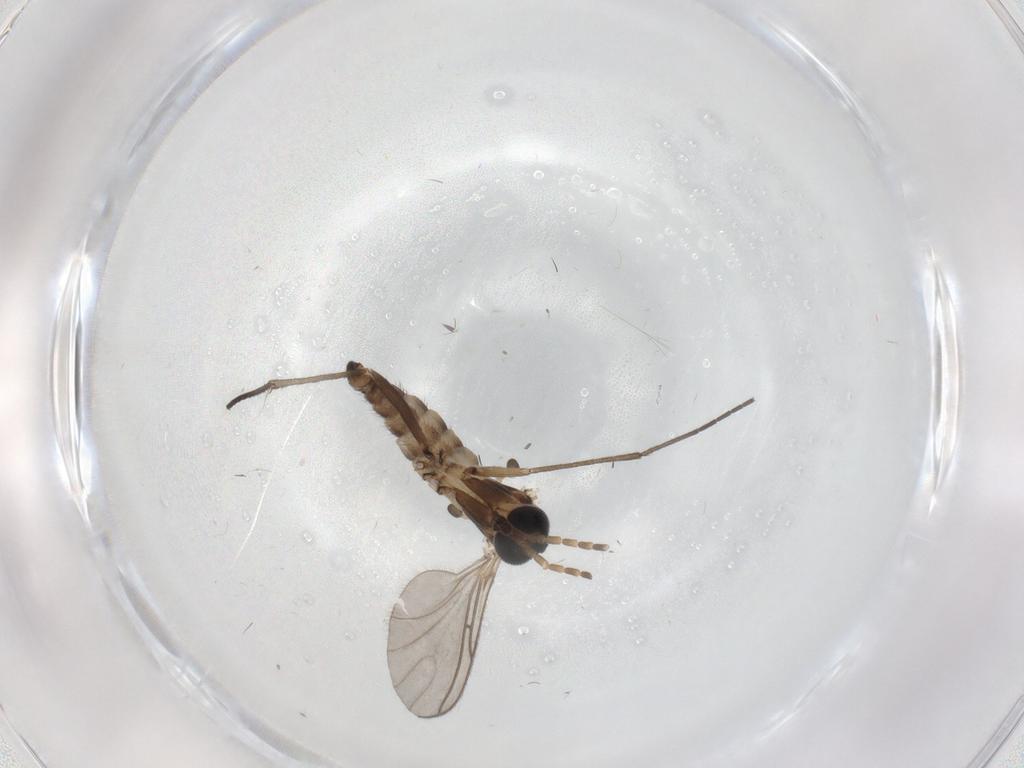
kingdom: Animalia
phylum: Arthropoda
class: Insecta
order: Diptera
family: Sciaridae
